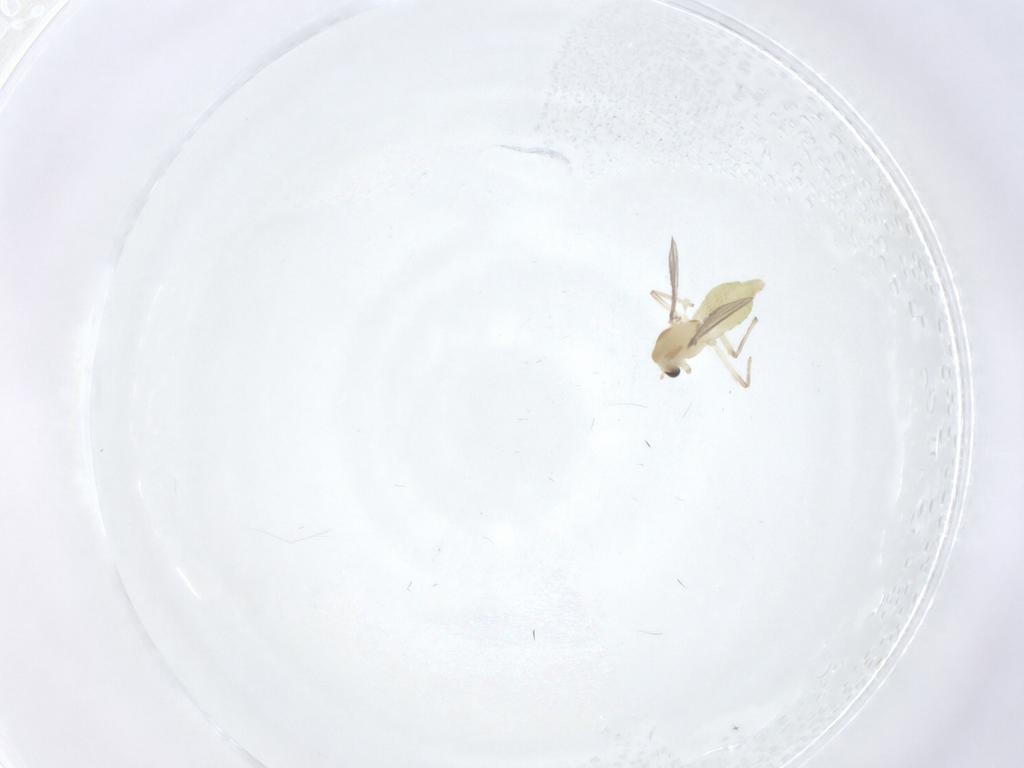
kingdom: Animalia
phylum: Arthropoda
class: Insecta
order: Diptera
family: Chironomidae
